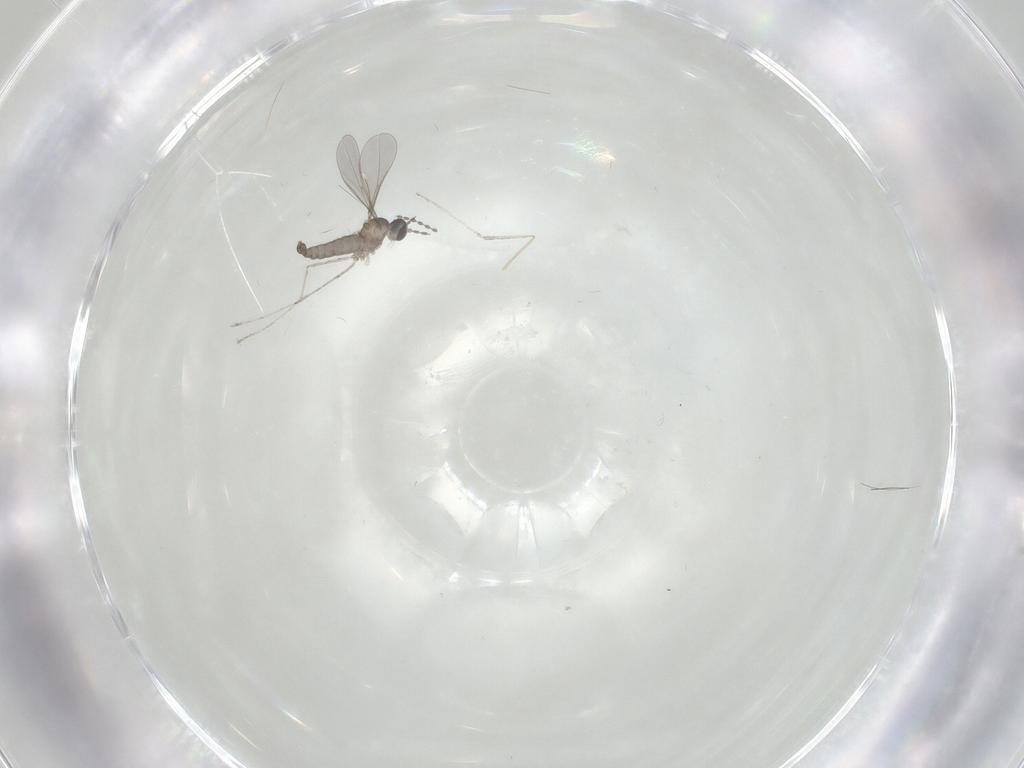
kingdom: Animalia
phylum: Arthropoda
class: Insecta
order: Diptera
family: Cecidomyiidae
